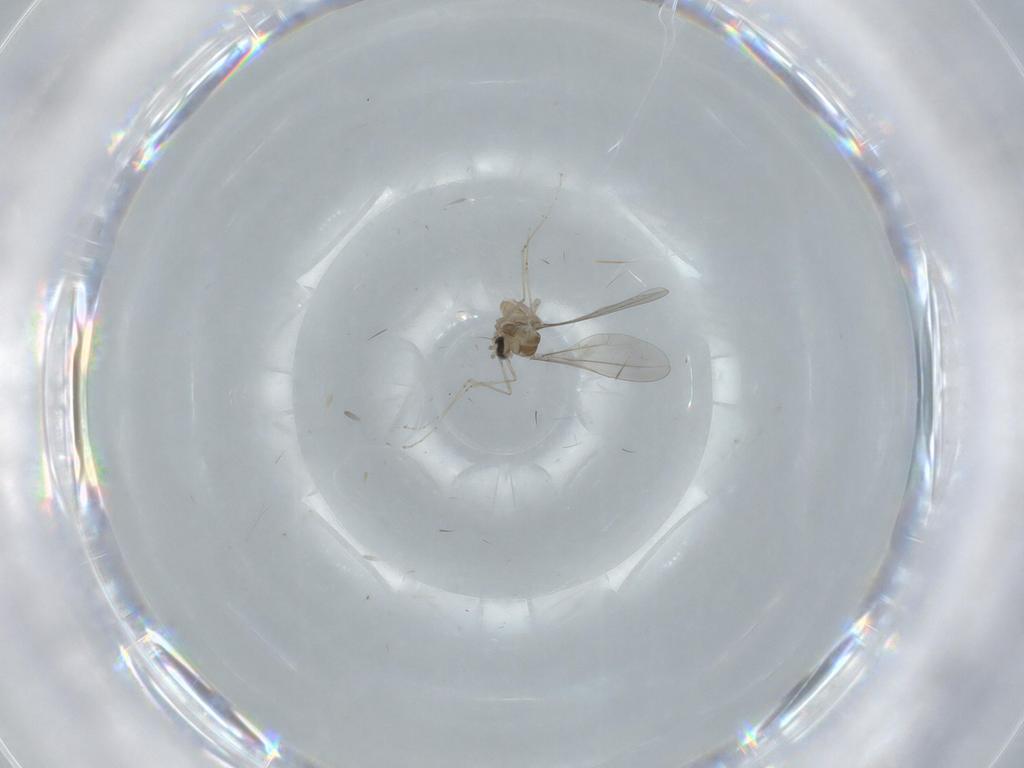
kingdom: Animalia
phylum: Arthropoda
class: Insecta
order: Diptera
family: Cecidomyiidae
